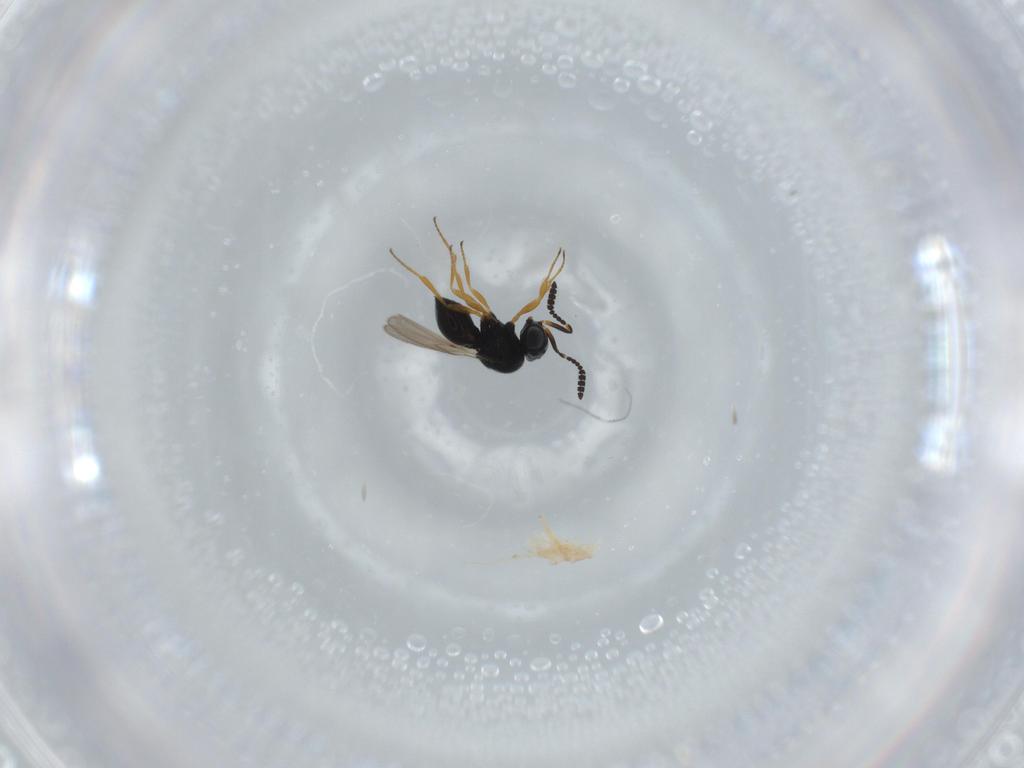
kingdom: Animalia
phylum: Arthropoda
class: Insecta
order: Hymenoptera
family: Scelionidae
